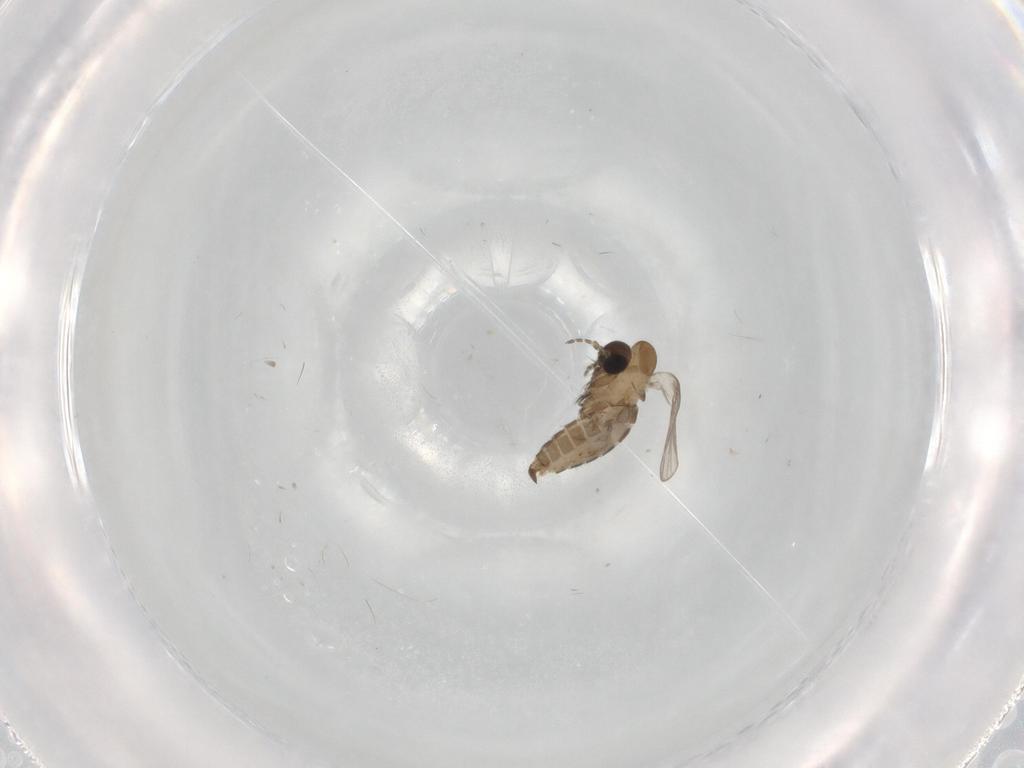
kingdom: Animalia
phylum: Arthropoda
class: Insecta
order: Diptera
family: Psychodidae
